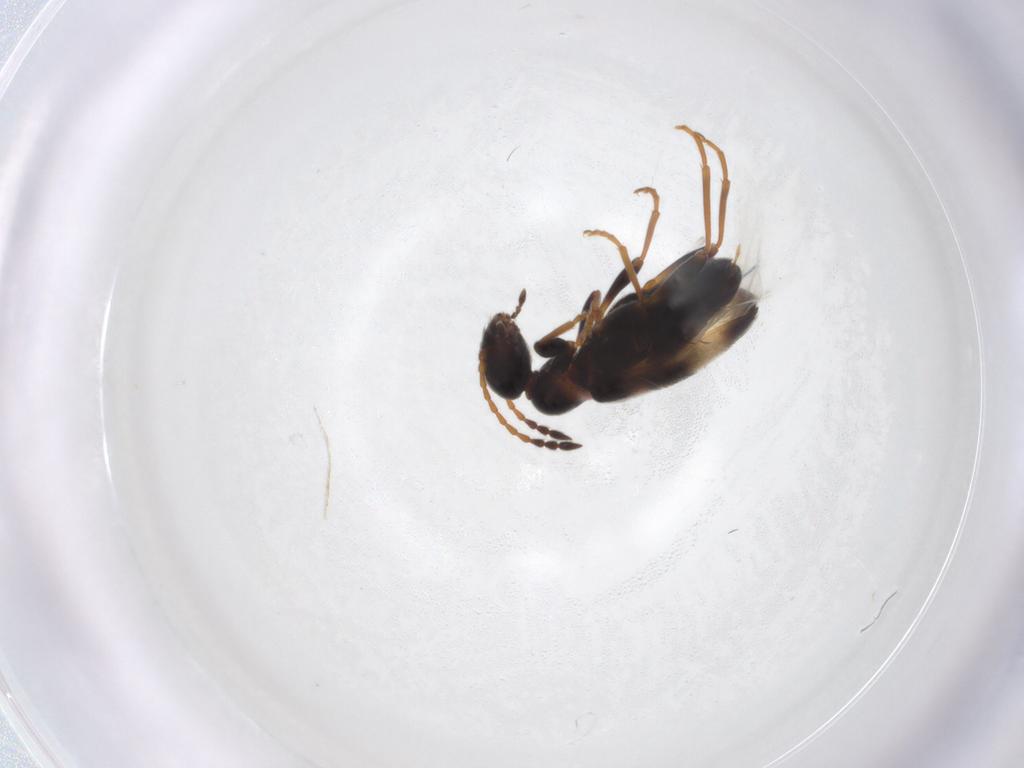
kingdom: Animalia
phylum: Arthropoda
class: Insecta
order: Coleoptera
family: Anthicidae
